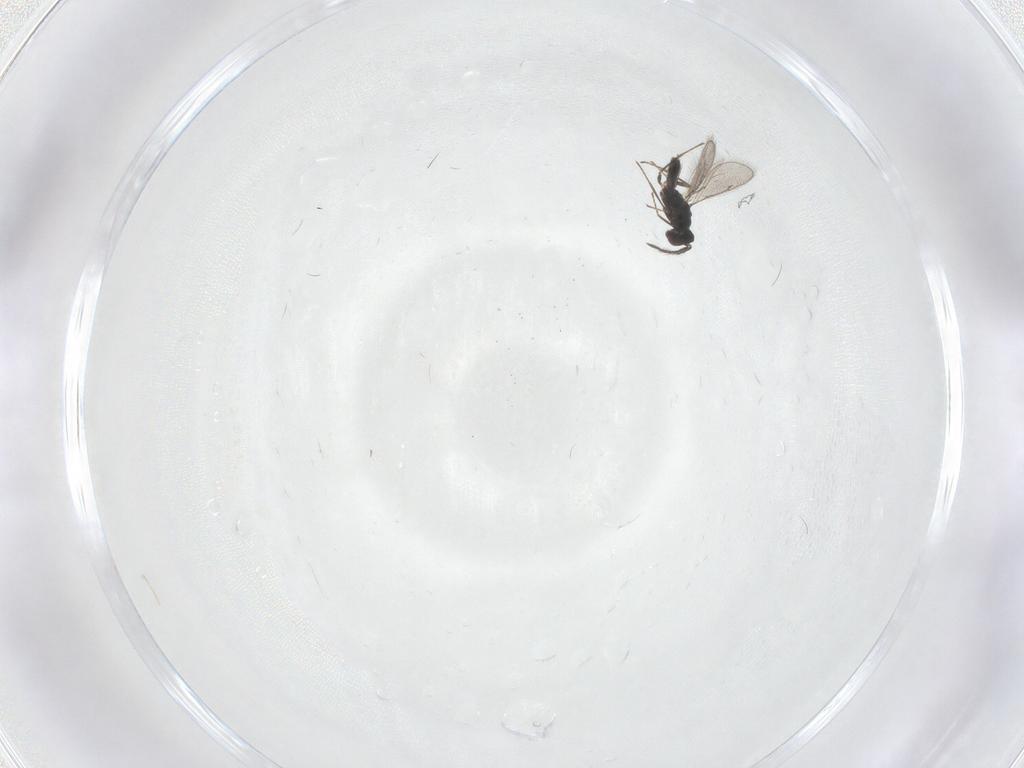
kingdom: Animalia
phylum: Arthropoda
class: Insecta
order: Hymenoptera
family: Eulophidae
